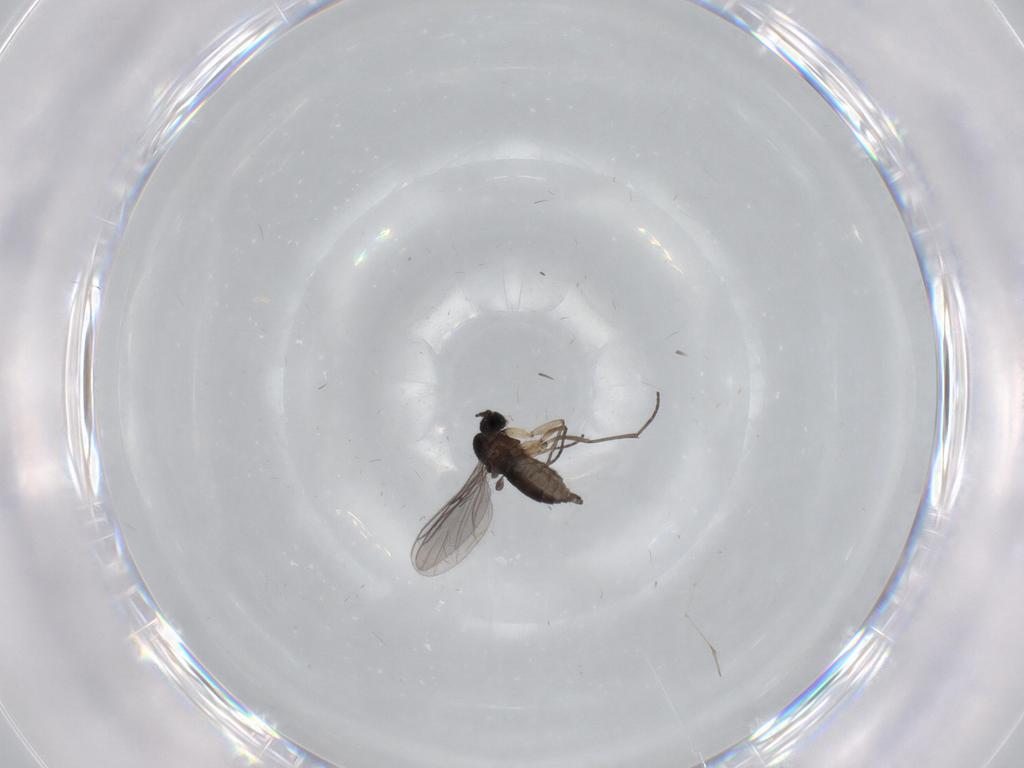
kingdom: Animalia
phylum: Arthropoda
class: Insecta
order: Diptera
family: Sciaridae
